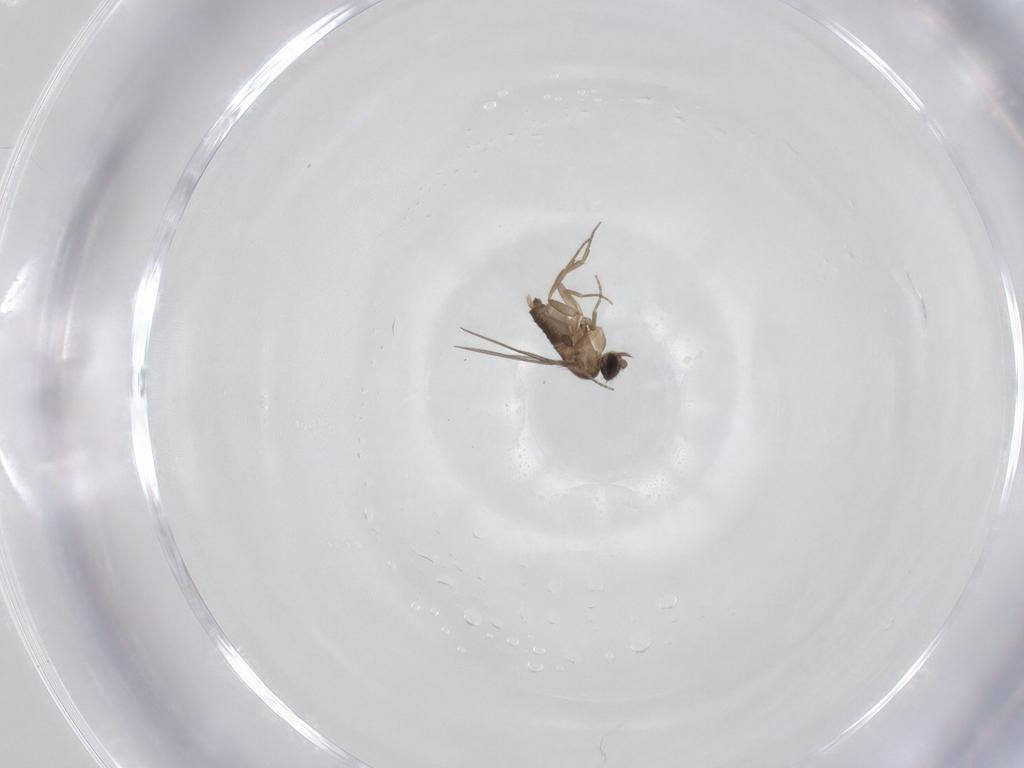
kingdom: Animalia
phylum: Arthropoda
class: Insecta
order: Diptera
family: Phoridae
